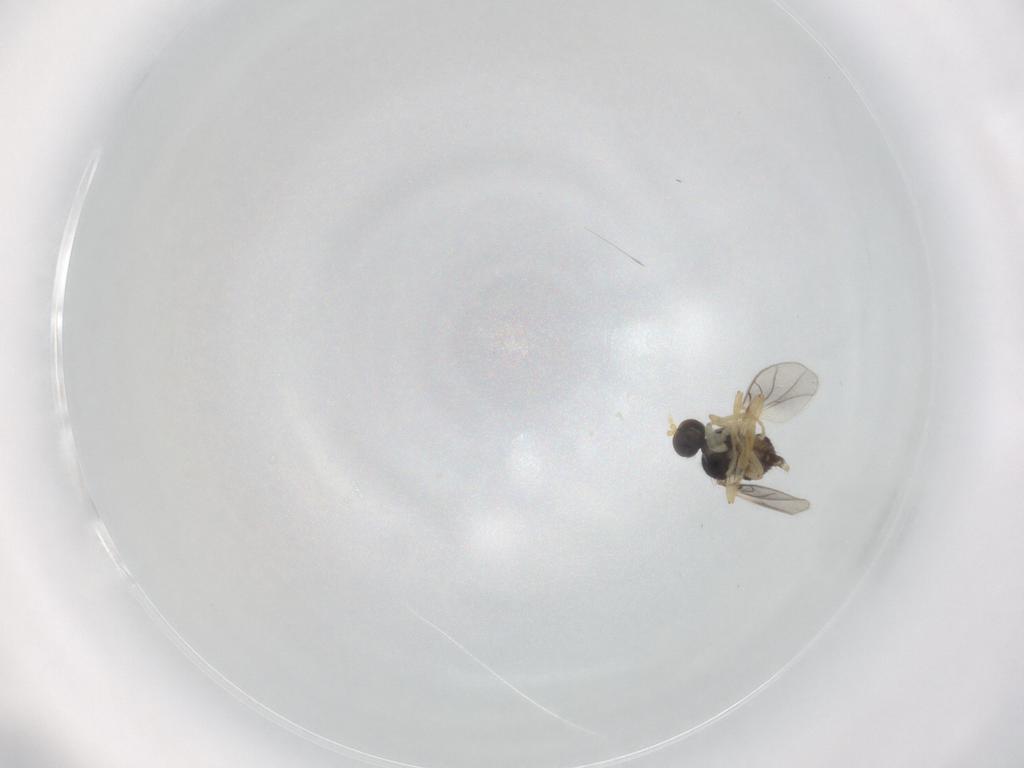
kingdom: Animalia
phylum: Arthropoda
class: Insecta
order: Diptera
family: Hybotidae
